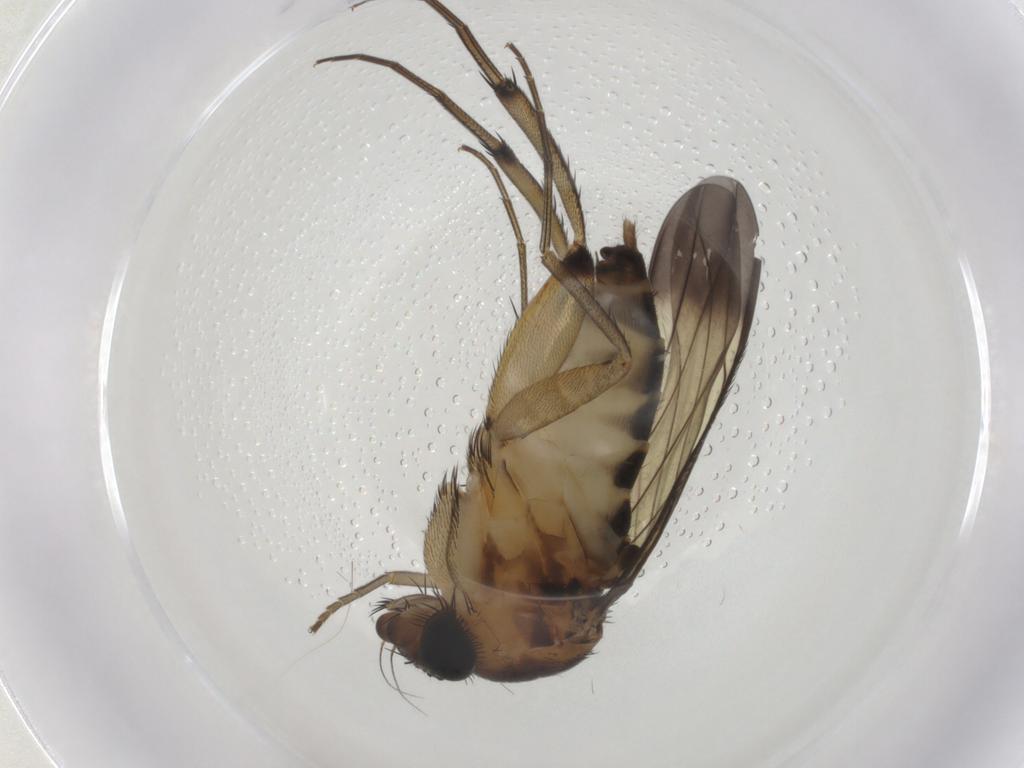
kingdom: Animalia
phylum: Arthropoda
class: Insecta
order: Diptera
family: Phoridae
